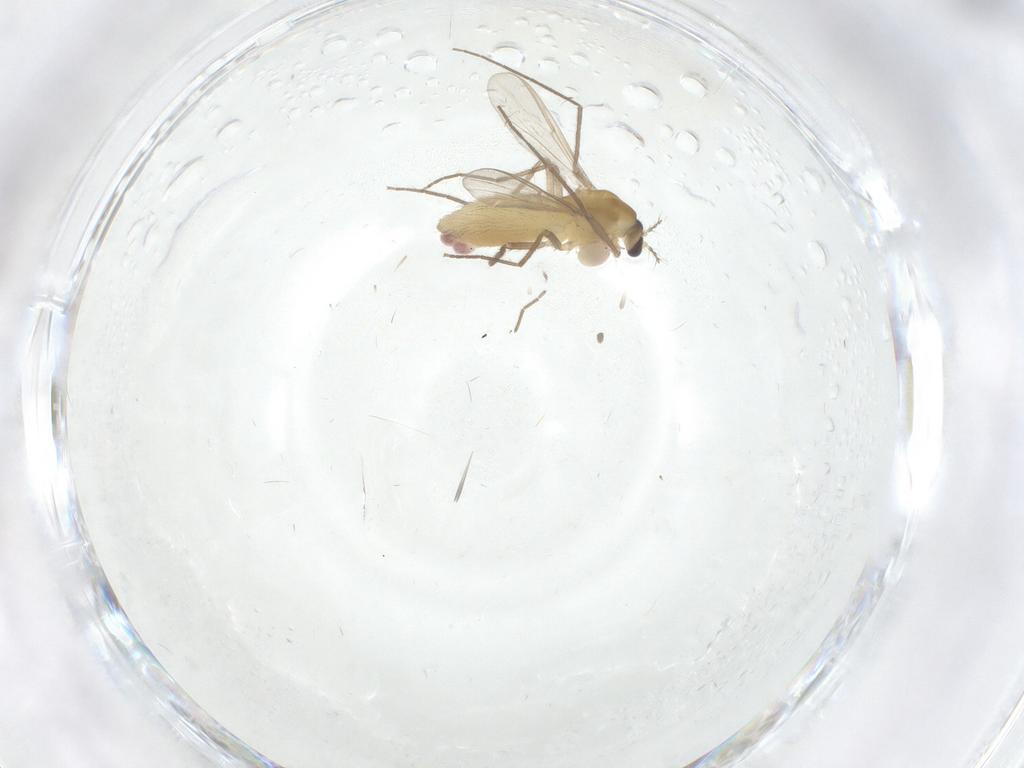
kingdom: Animalia
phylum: Arthropoda
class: Insecta
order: Diptera
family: Chironomidae
